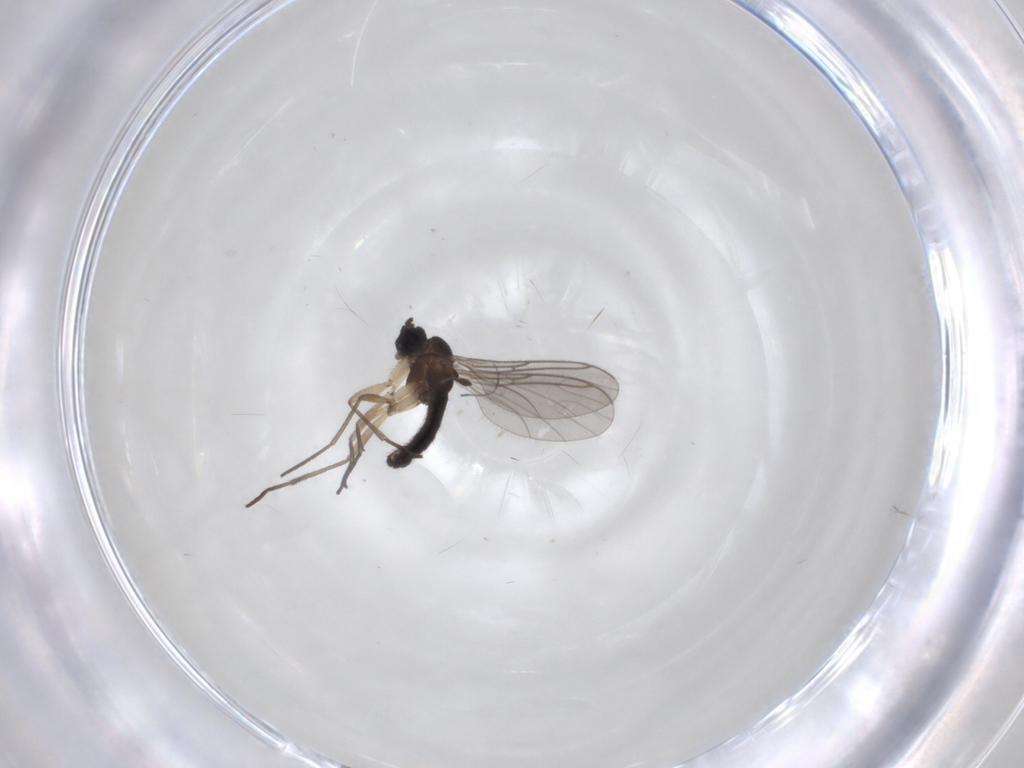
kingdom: Animalia
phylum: Arthropoda
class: Insecta
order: Diptera
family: Sciaridae
